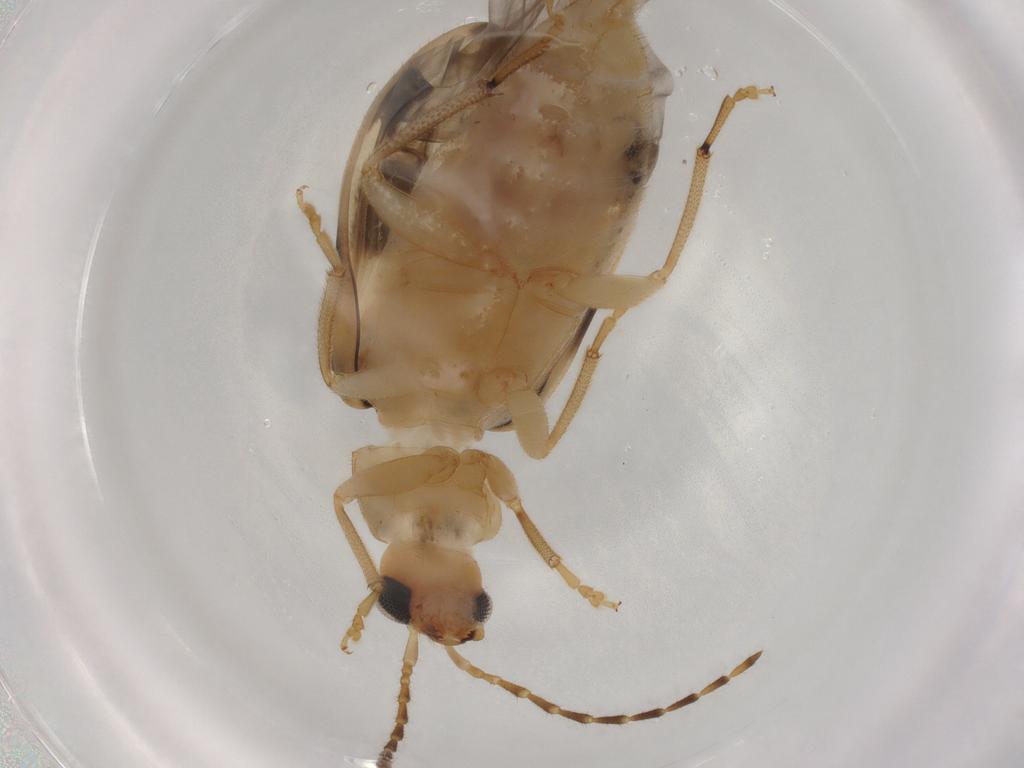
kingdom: Animalia
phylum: Arthropoda
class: Insecta
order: Coleoptera
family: Chrysomelidae
